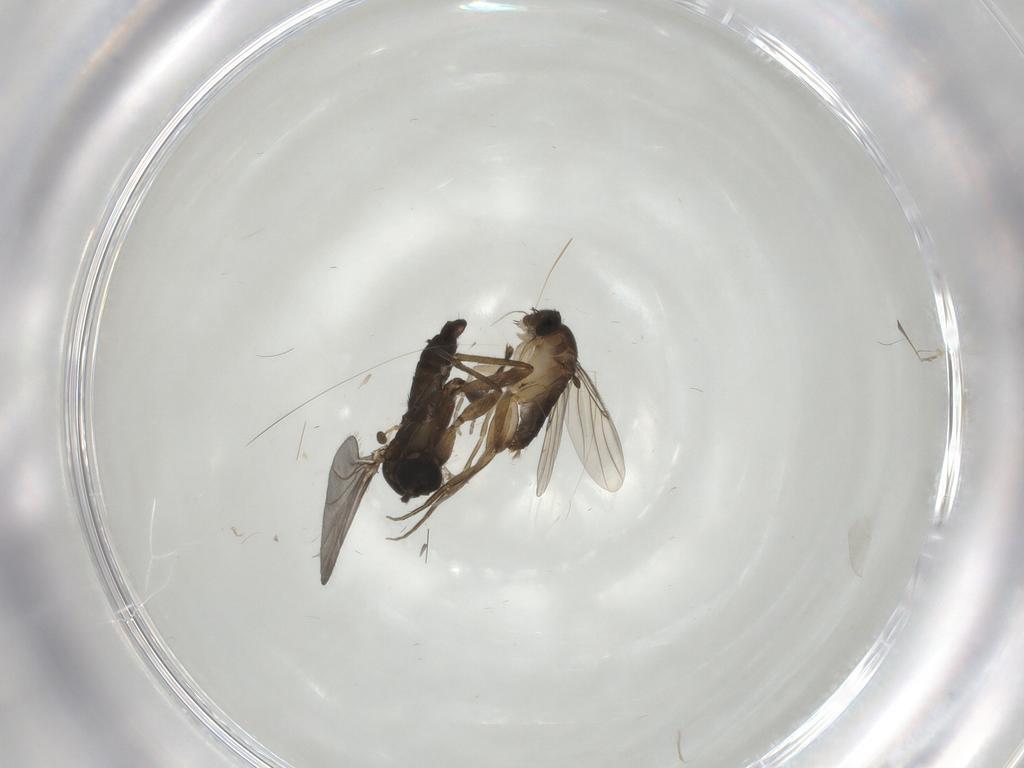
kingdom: Animalia
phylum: Arthropoda
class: Insecta
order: Diptera
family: Sciaridae
